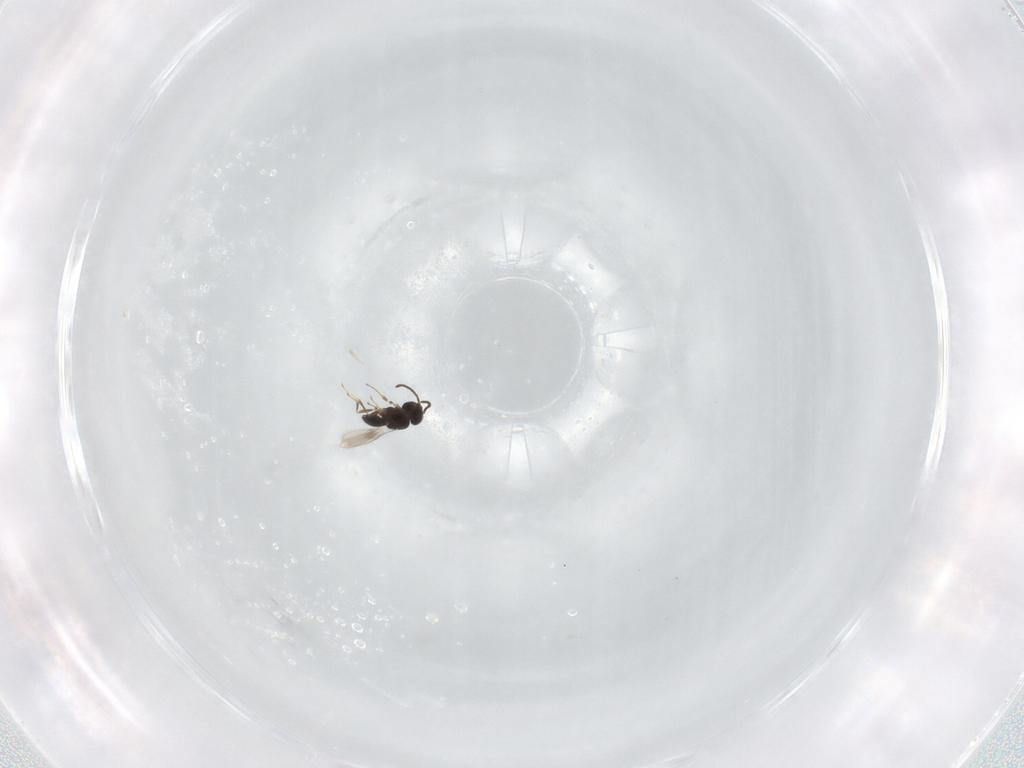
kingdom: Animalia
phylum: Arthropoda
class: Insecta
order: Hymenoptera
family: Scelionidae
